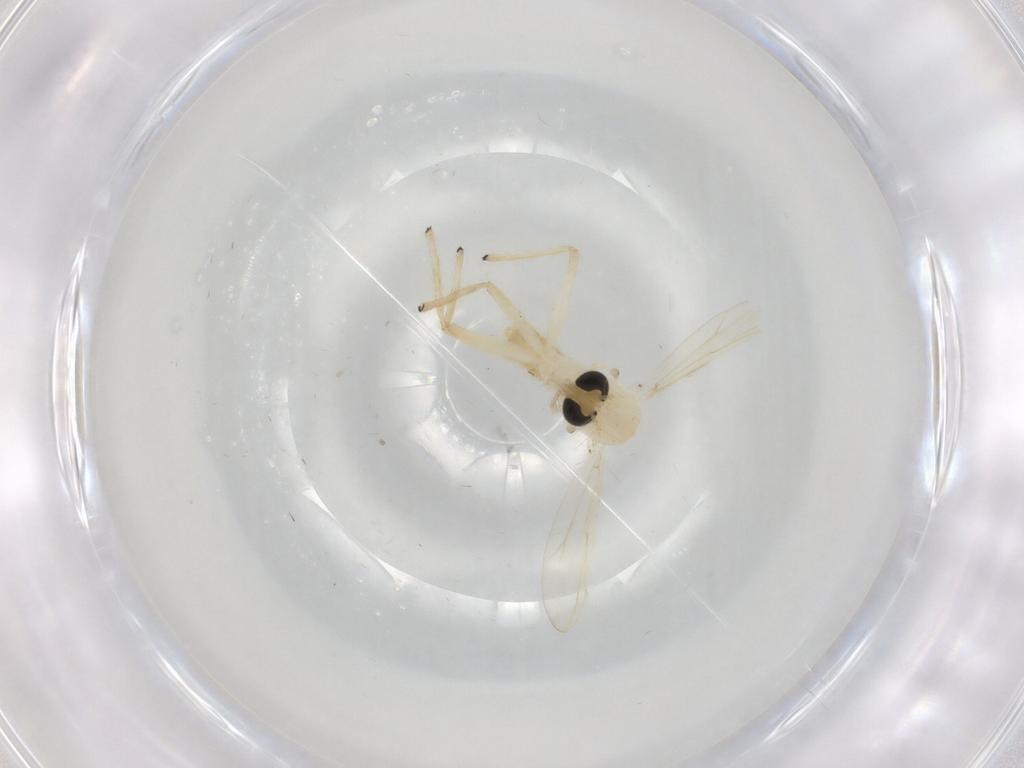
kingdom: Animalia
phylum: Arthropoda
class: Insecta
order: Diptera
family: Chironomidae
